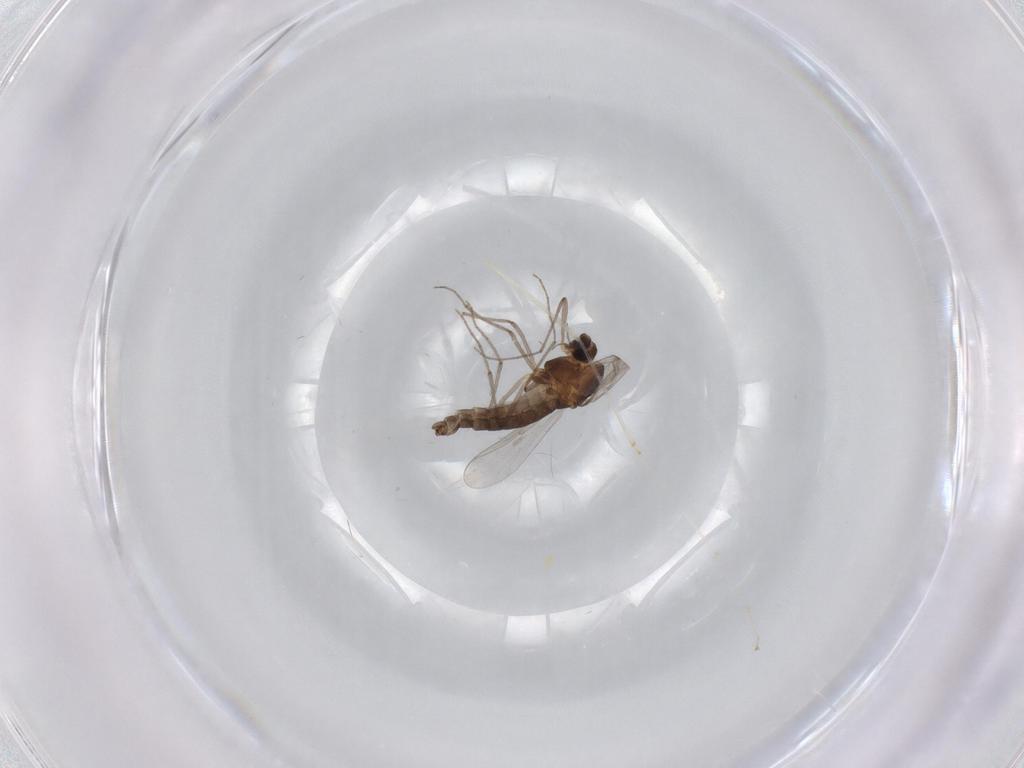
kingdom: Animalia
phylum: Arthropoda
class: Insecta
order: Diptera
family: Chironomidae
